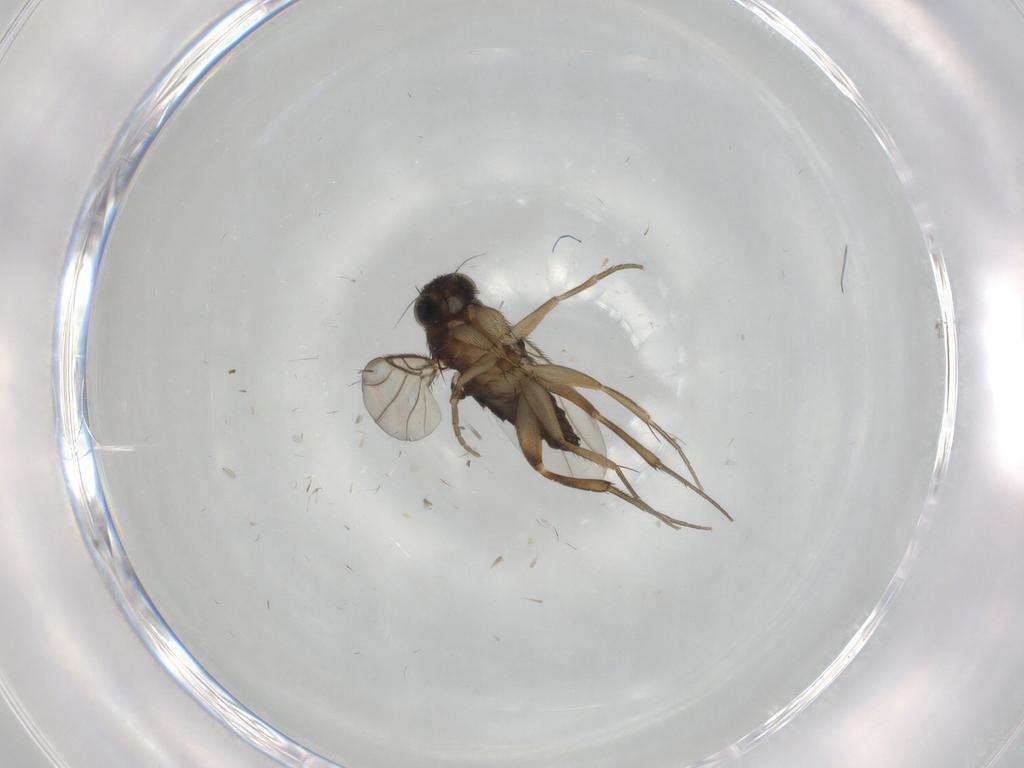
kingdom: Animalia
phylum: Arthropoda
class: Insecta
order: Diptera
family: Phoridae
